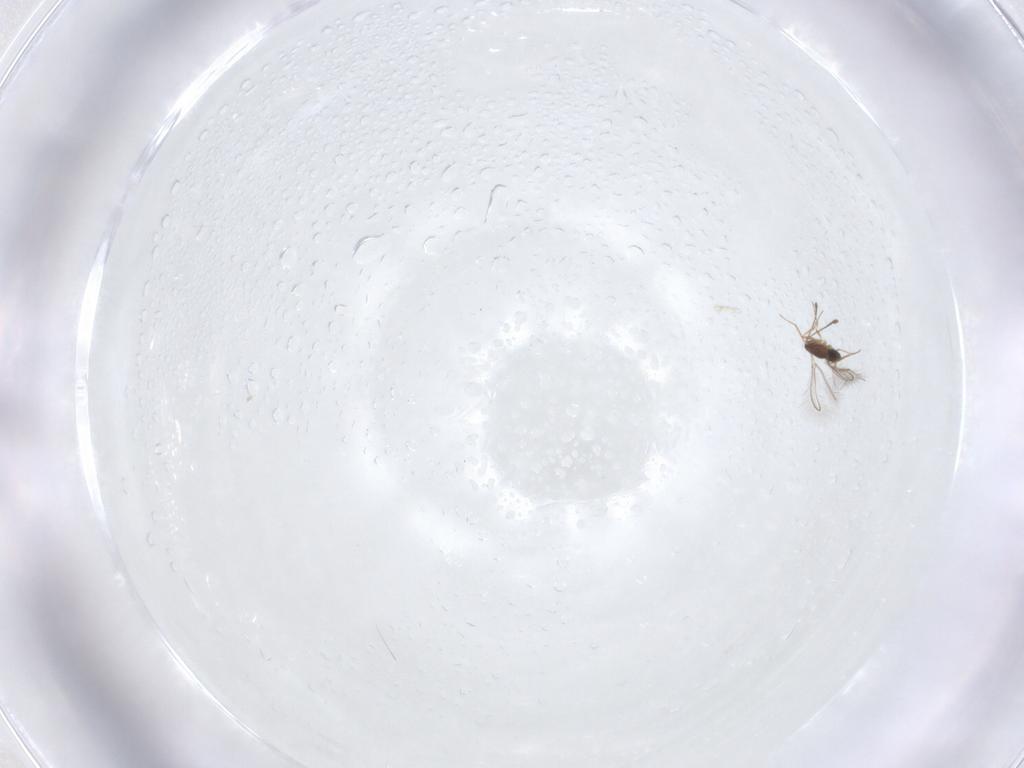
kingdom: Animalia
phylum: Arthropoda
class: Insecta
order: Hymenoptera
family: Mymaridae
